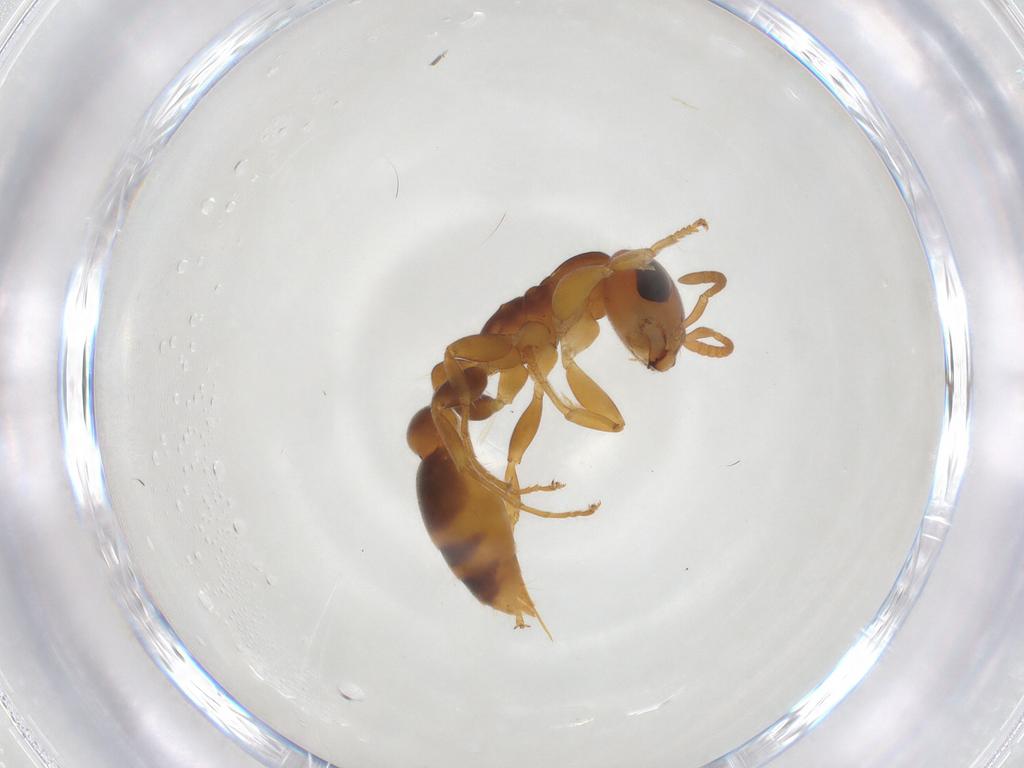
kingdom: Animalia
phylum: Arthropoda
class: Insecta
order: Hymenoptera
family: Formicidae
